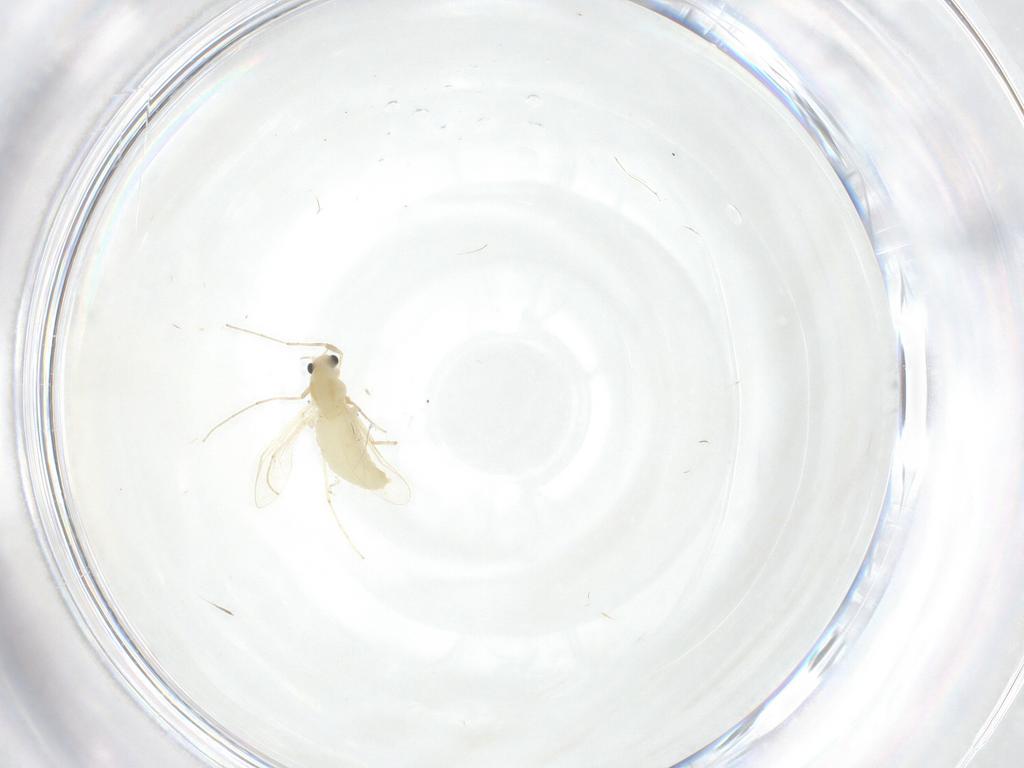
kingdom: Animalia
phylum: Arthropoda
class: Insecta
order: Diptera
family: Chironomidae
